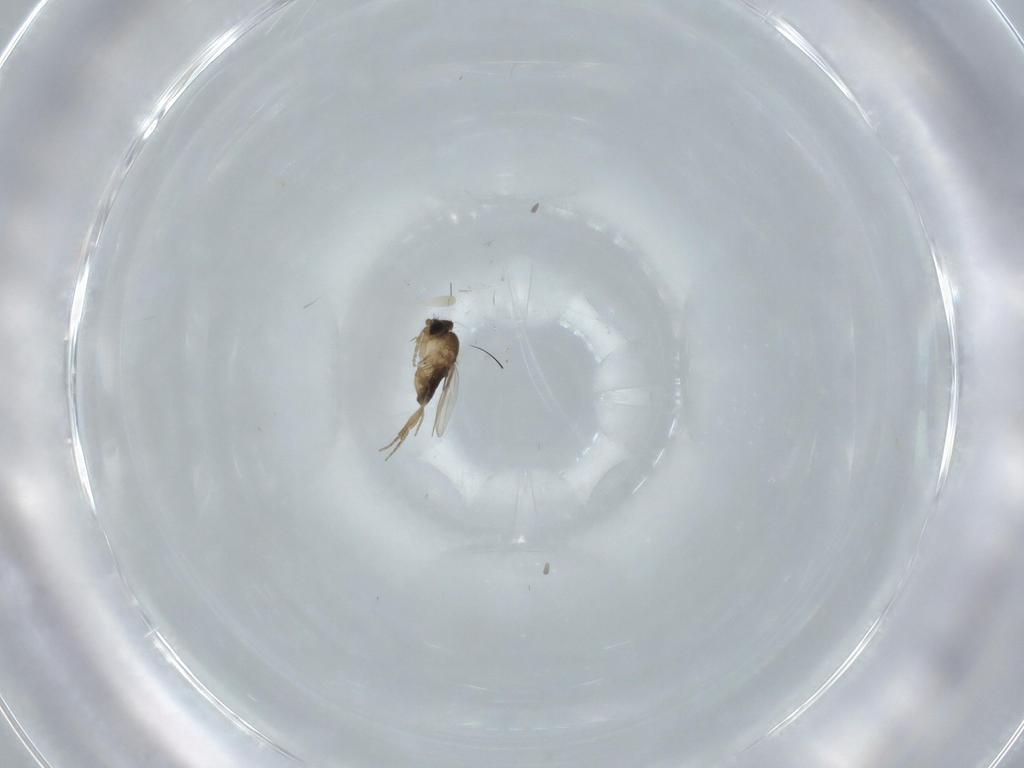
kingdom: Animalia
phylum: Arthropoda
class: Insecta
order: Diptera
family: Phoridae
